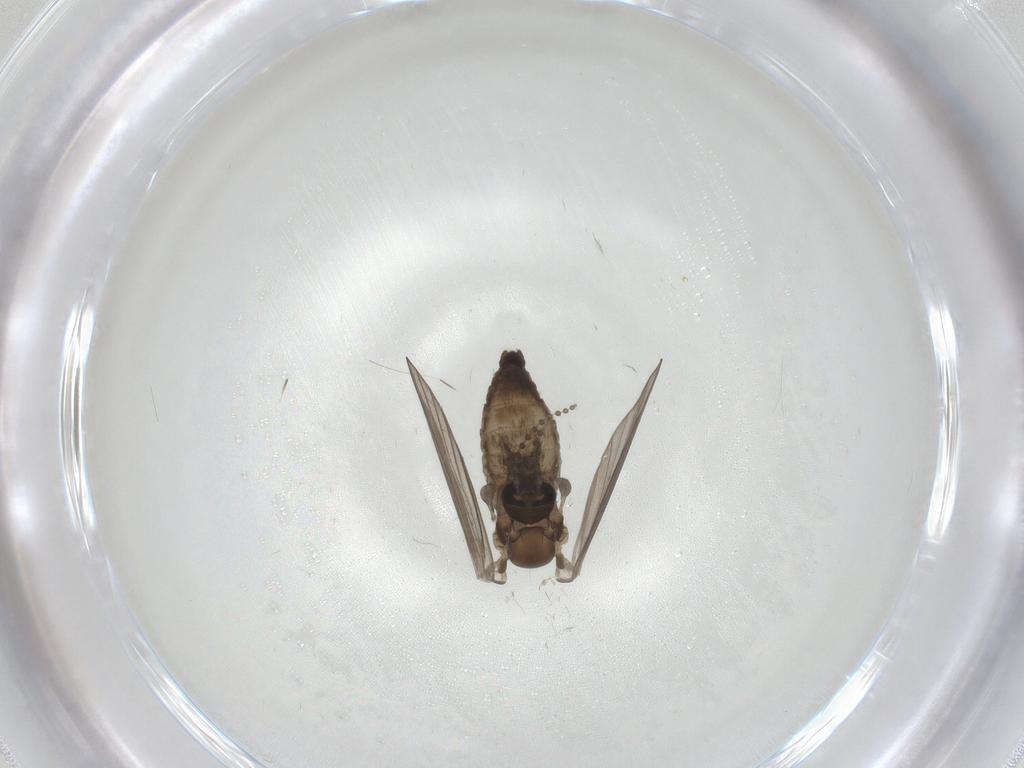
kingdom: Animalia
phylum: Arthropoda
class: Insecta
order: Diptera
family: Psychodidae
